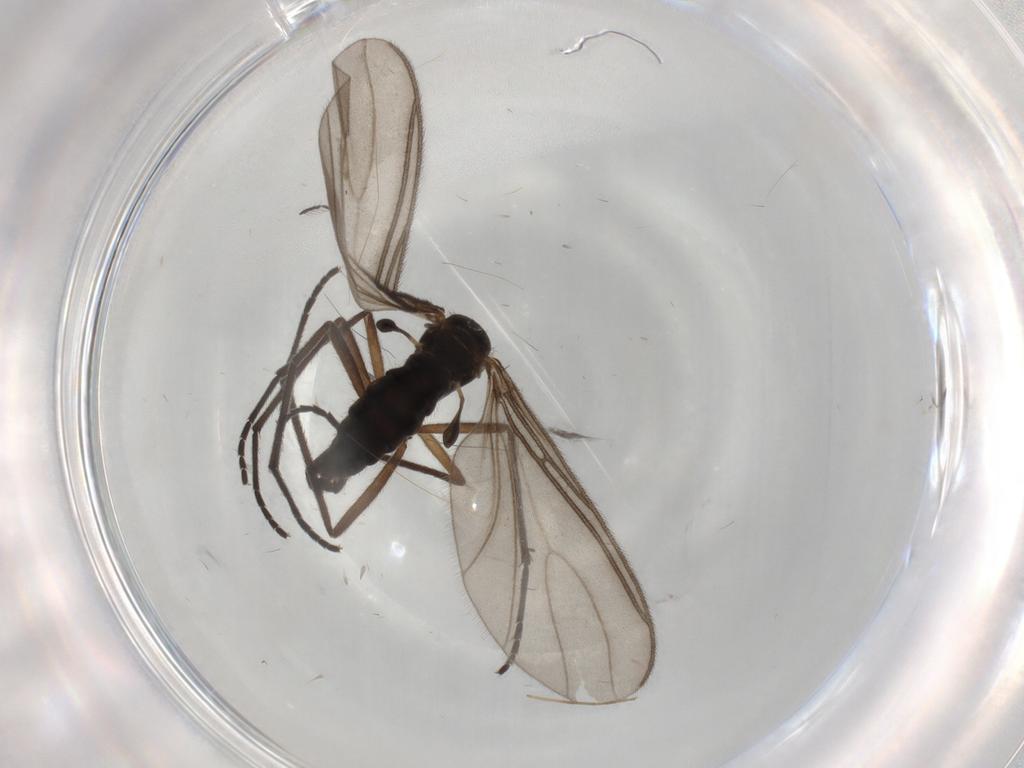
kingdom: Animalia
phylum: Arthropoda
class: Insecta
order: Diptera
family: Sciaridae
